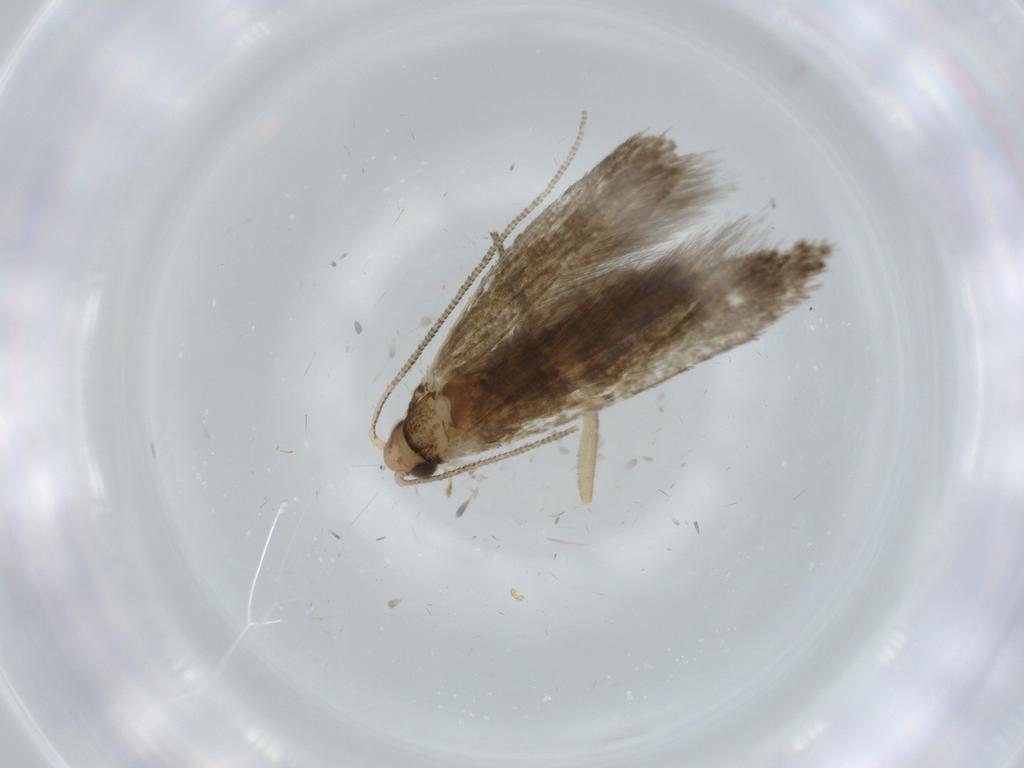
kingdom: Animalia
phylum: Arthropoda
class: Insecta
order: Lepidoptera
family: Meessiidae
